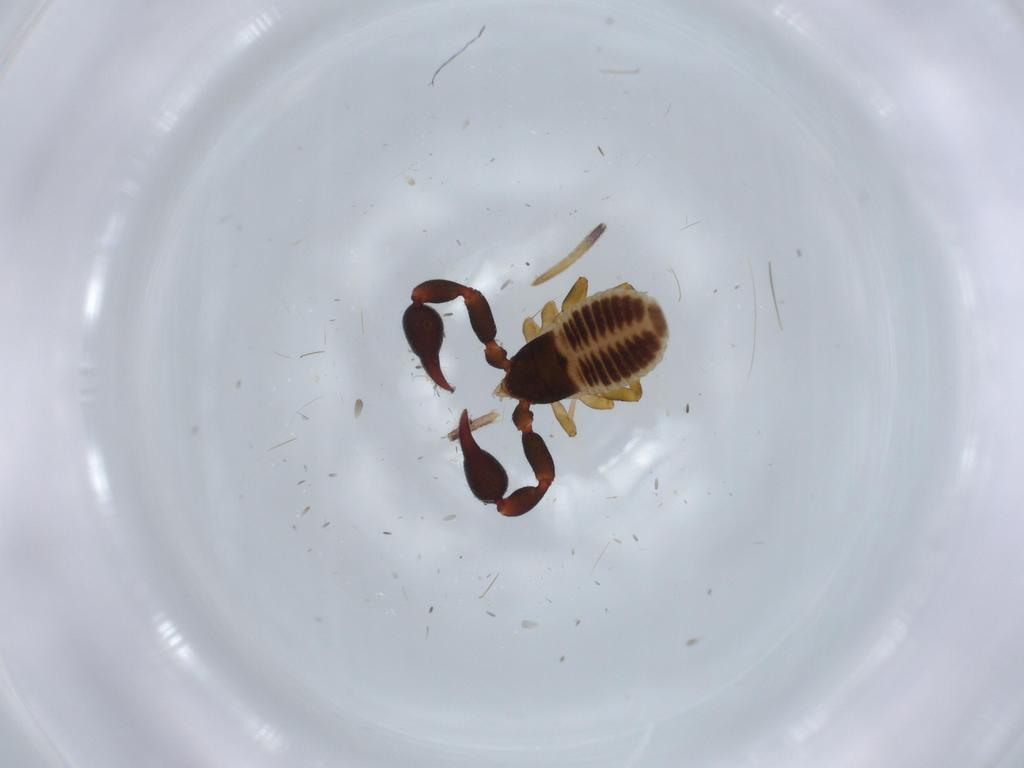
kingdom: Animalia
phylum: Arthropoda
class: Arachnida
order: Pseudoscorpiones
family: Chernetidae
